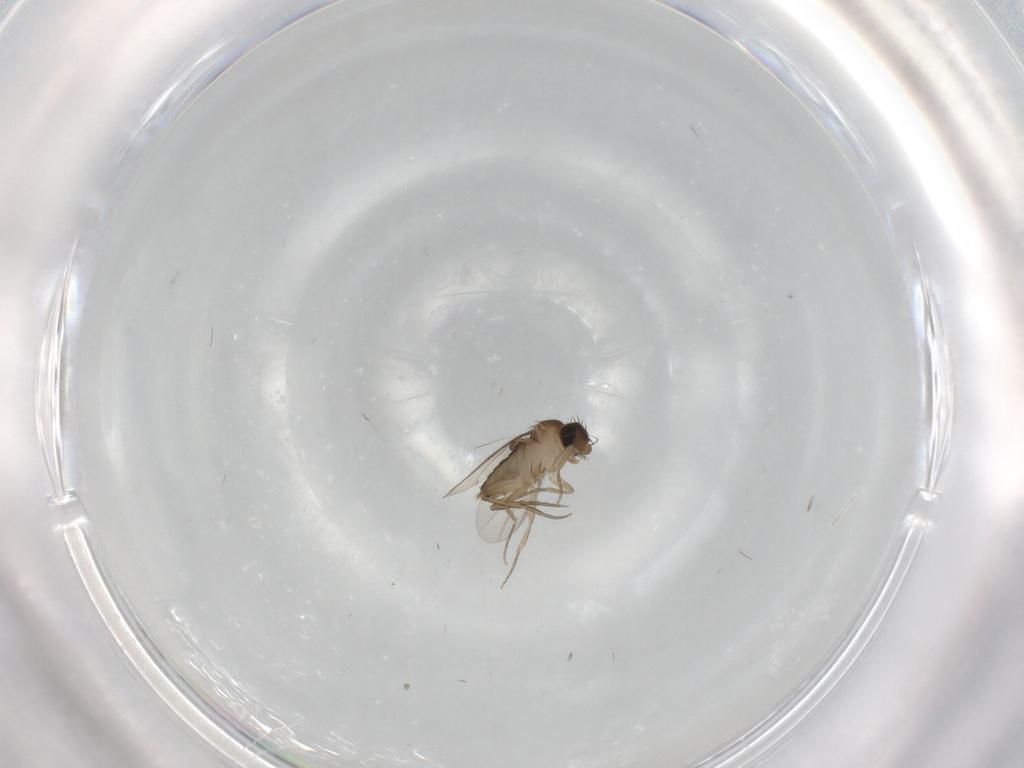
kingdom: Animalia
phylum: Arthropoda
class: Insecta
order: Diptera
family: Phoridae
